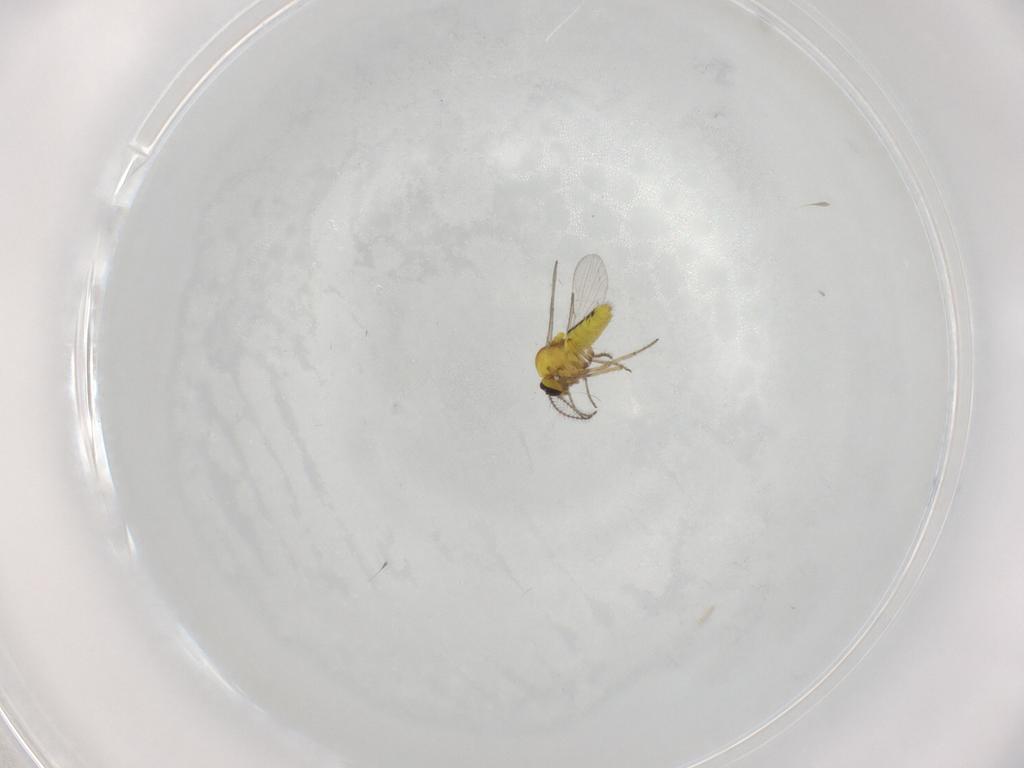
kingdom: Animalia
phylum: Arthropoda
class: Insecta
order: Diptera
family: Ceratopogonidae
